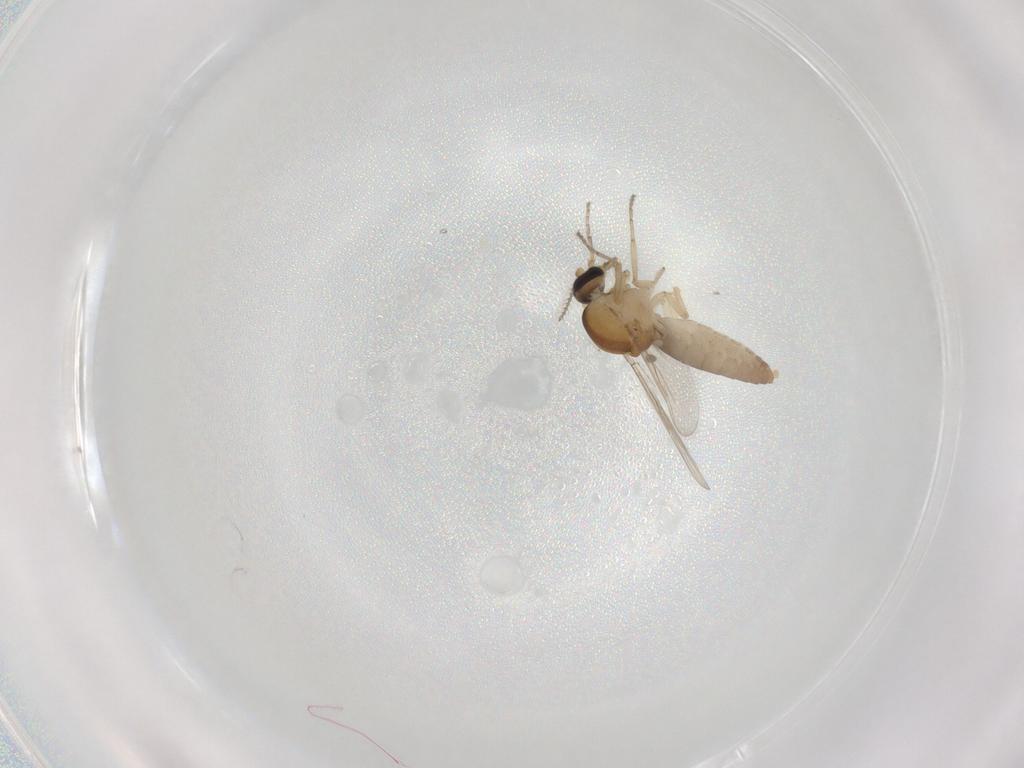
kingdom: Animalia
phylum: Arthropoda
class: Insecta
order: Diptera
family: Ceratopogonidae
